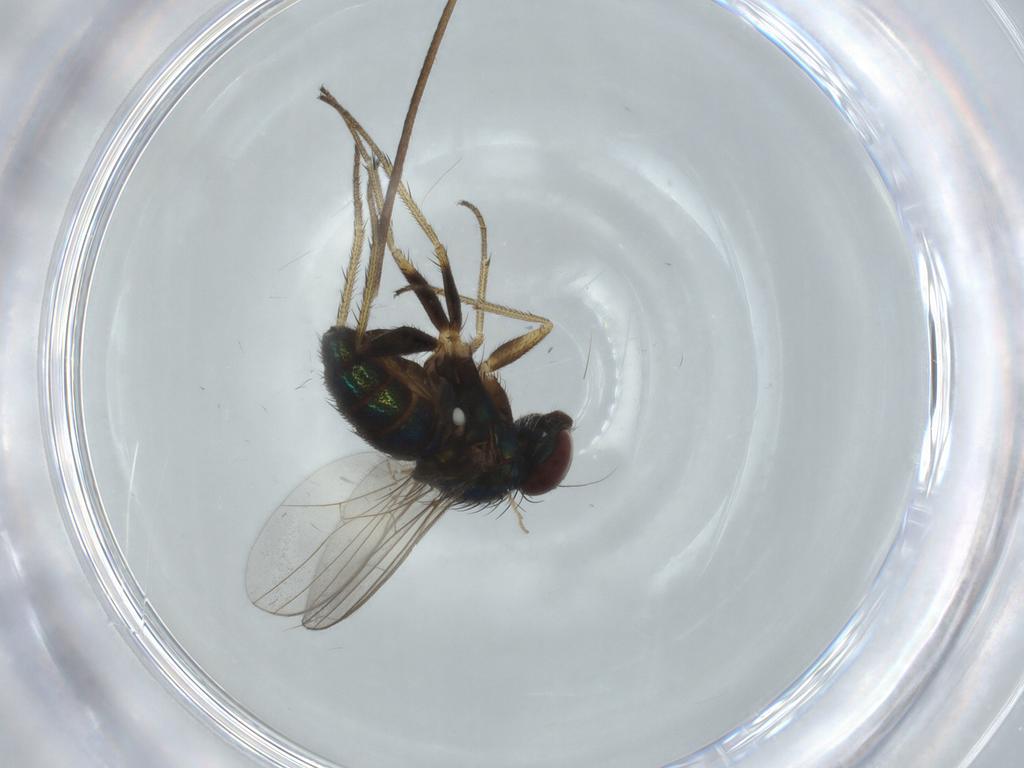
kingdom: Animalia
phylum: Arthropoda
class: Insecta
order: Diptera
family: Dolichopodidae
